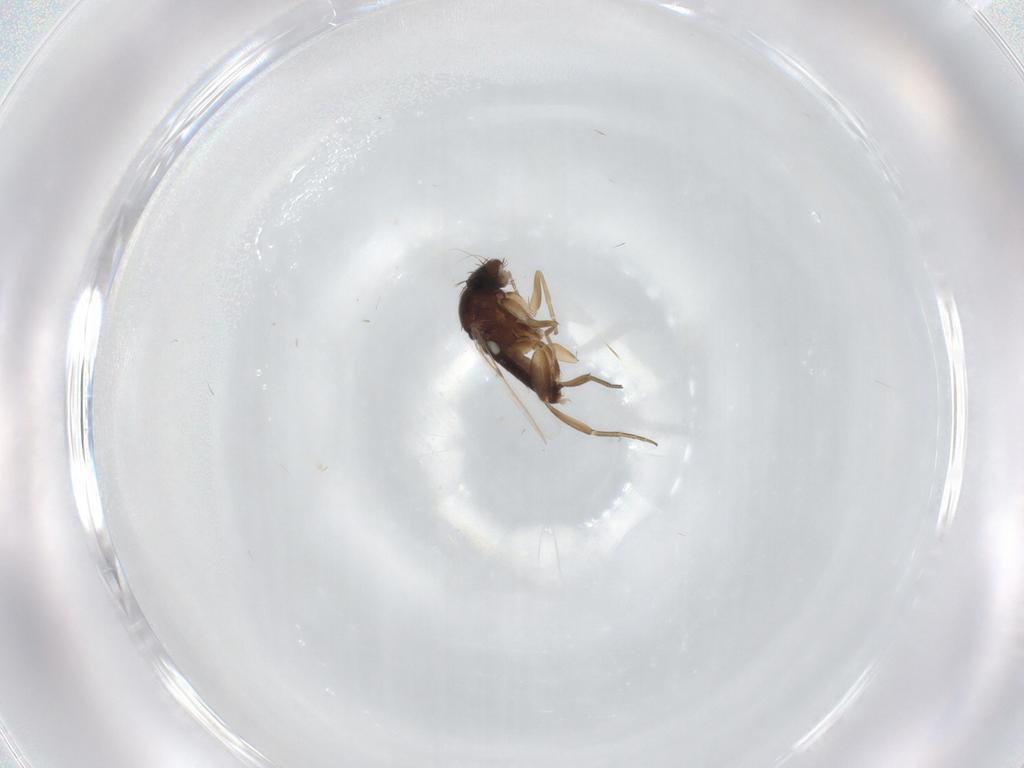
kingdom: Animalia
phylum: Arthropoda
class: Insecta
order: Diptera
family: Phoridae
